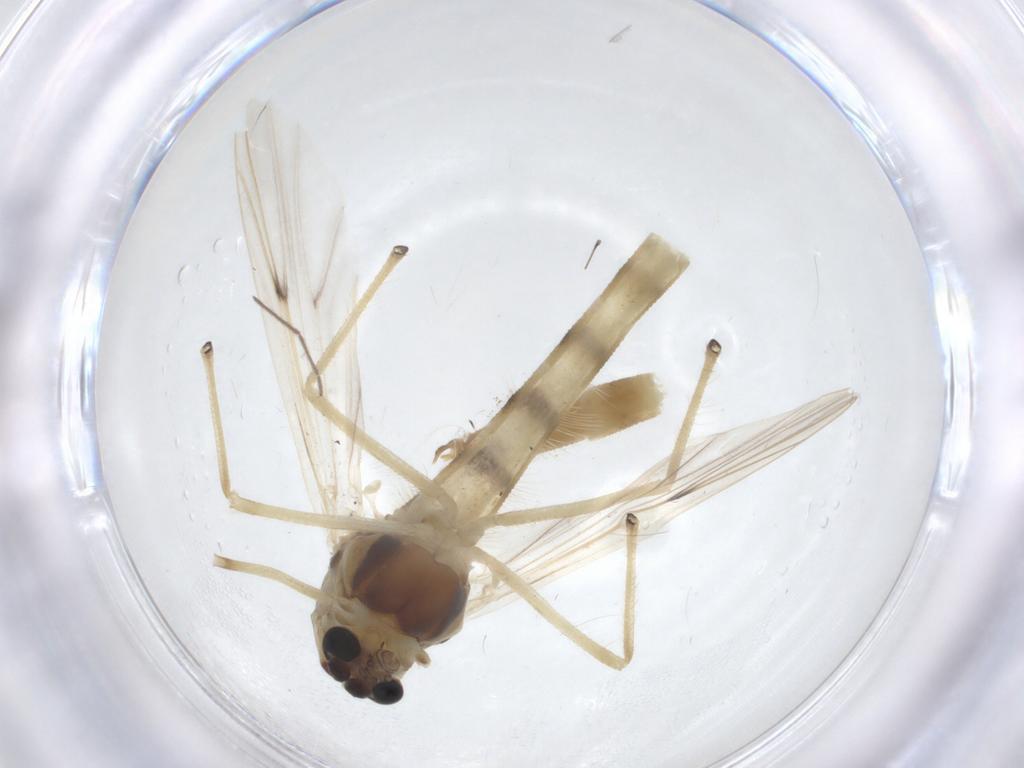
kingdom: Animalia
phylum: Arthropoda
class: Insecta
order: Diptera
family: Chironomidae
